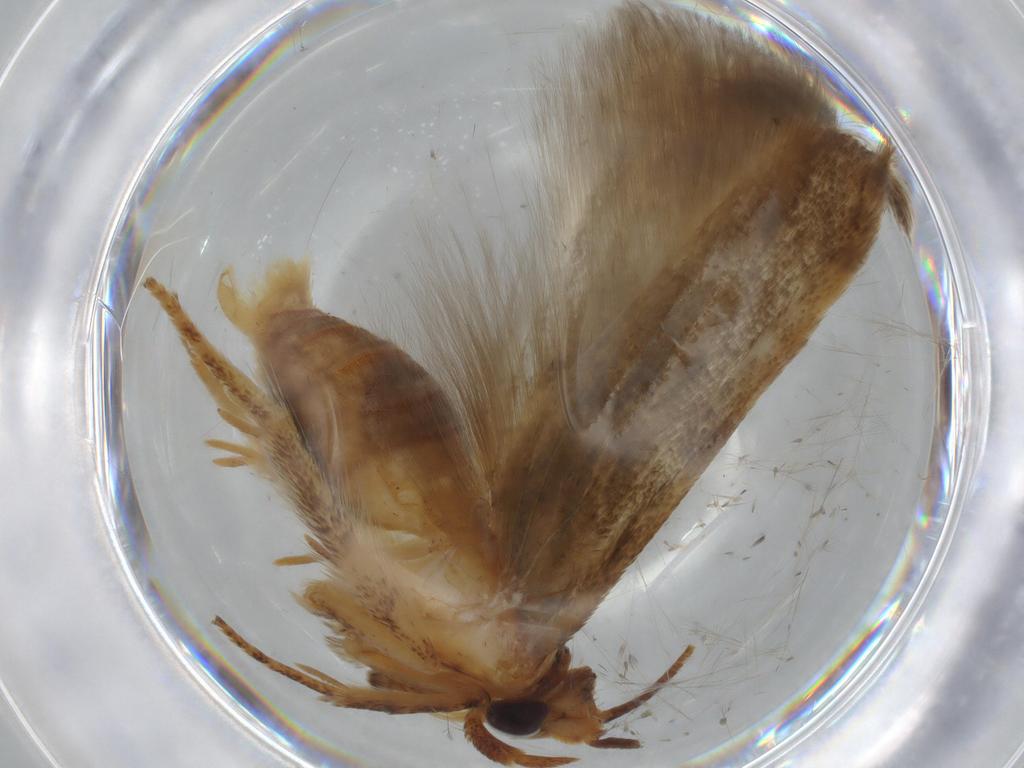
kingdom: Animalia
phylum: Arthropoda
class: Insecta
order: Lepidoptera
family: Coleophoridae
